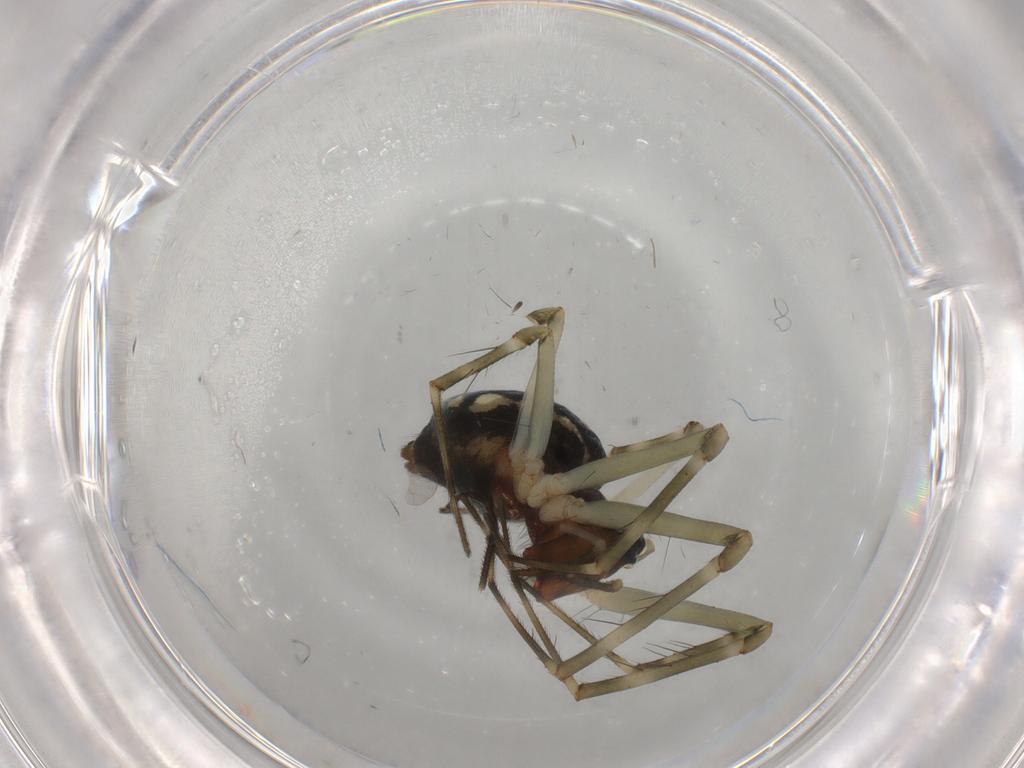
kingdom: Animalia
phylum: Arthropoda
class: Arachnida
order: Araneae
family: Linyphiidae
